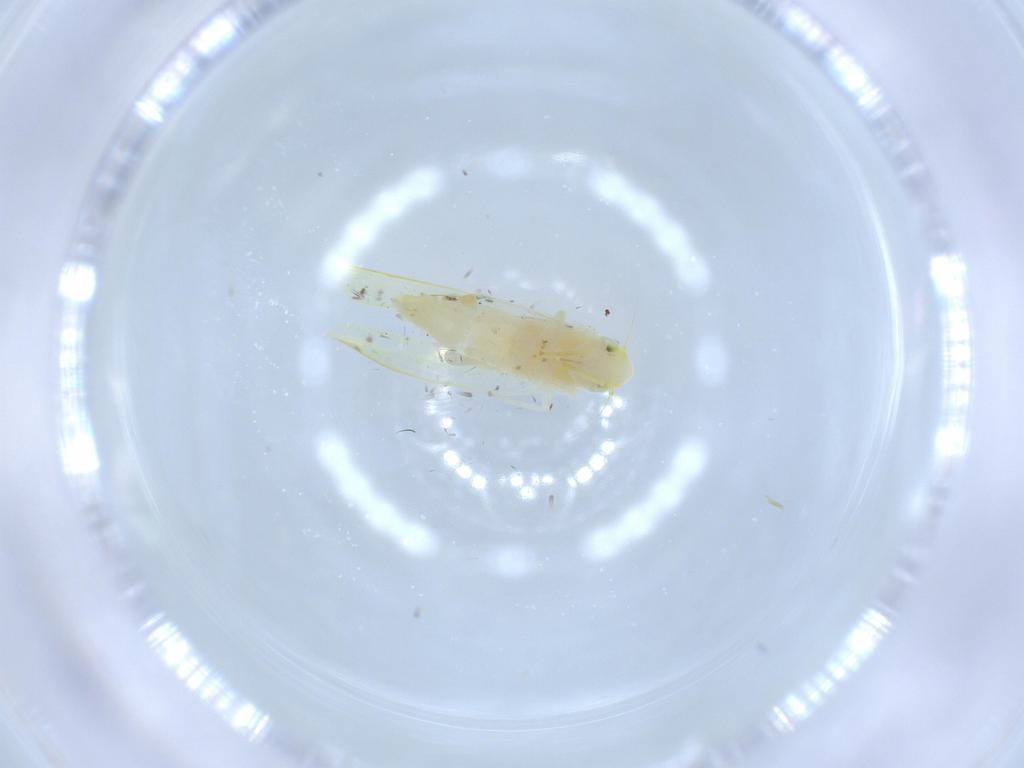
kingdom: Animalia
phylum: Arthropoda
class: Insecta
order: Hemiptera
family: Cicadellidae
